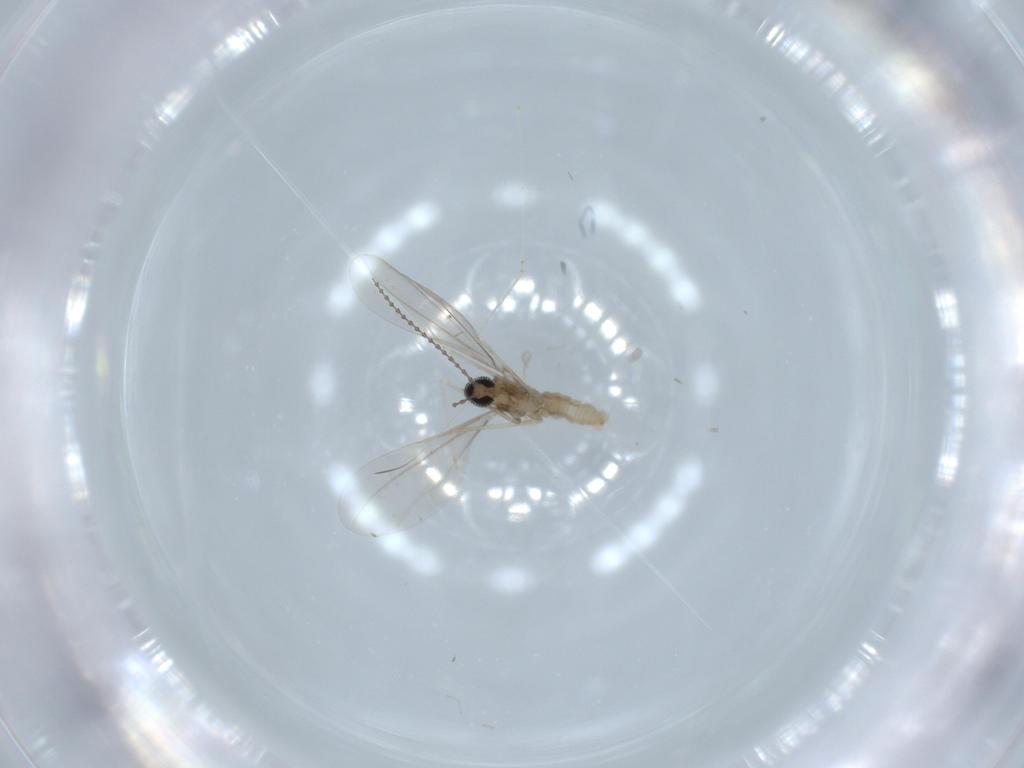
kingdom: Animalia
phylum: Arthropoda
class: Insecta
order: Diptera
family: Cecidomyiidae
